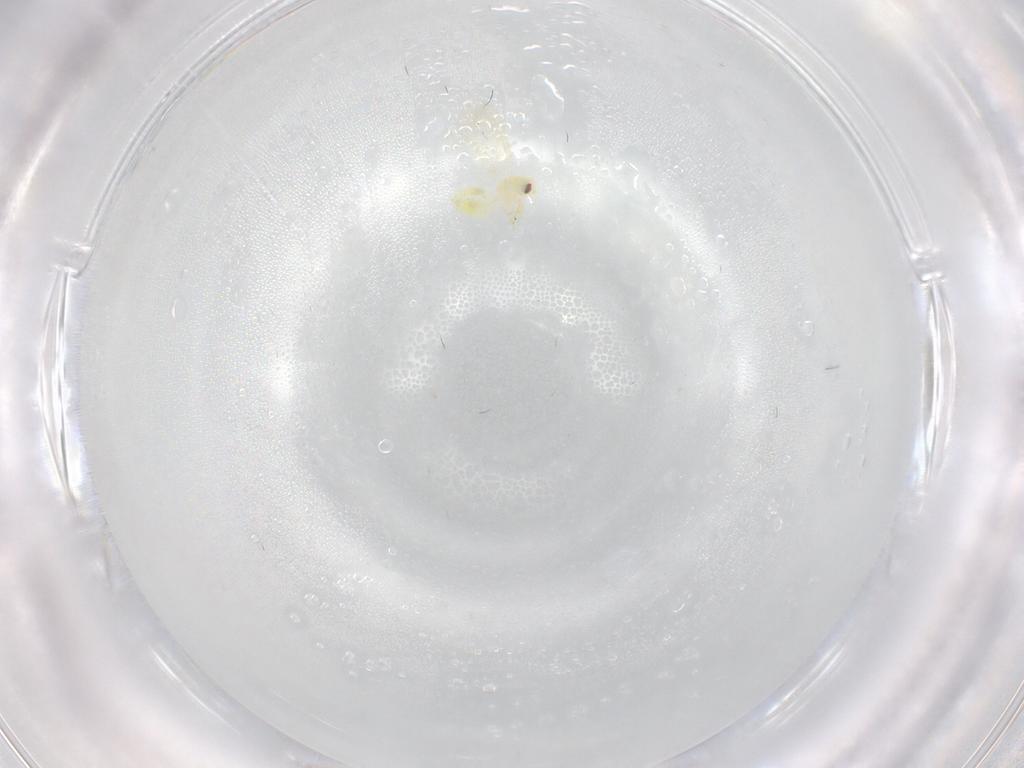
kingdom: Animalia
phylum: Arthropoda
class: Insecta
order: Hemiptera
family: Aleyrodidae
